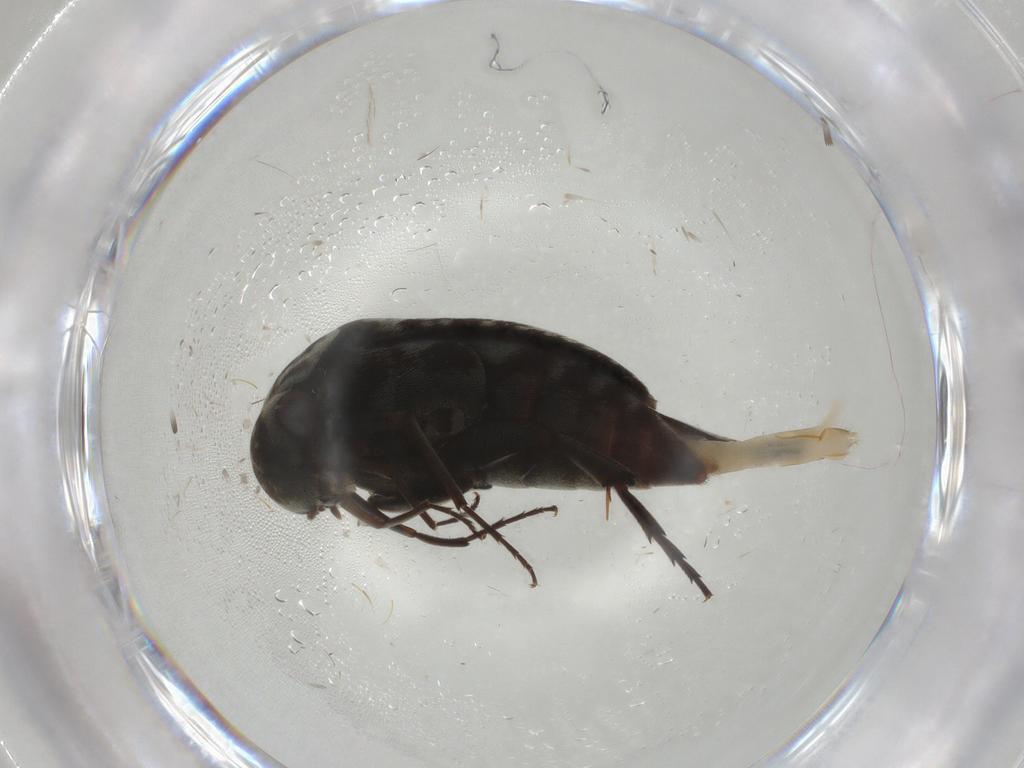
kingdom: Animalia
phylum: Arthropoda
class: Insecta
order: Coleoptera
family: Mordellidae
